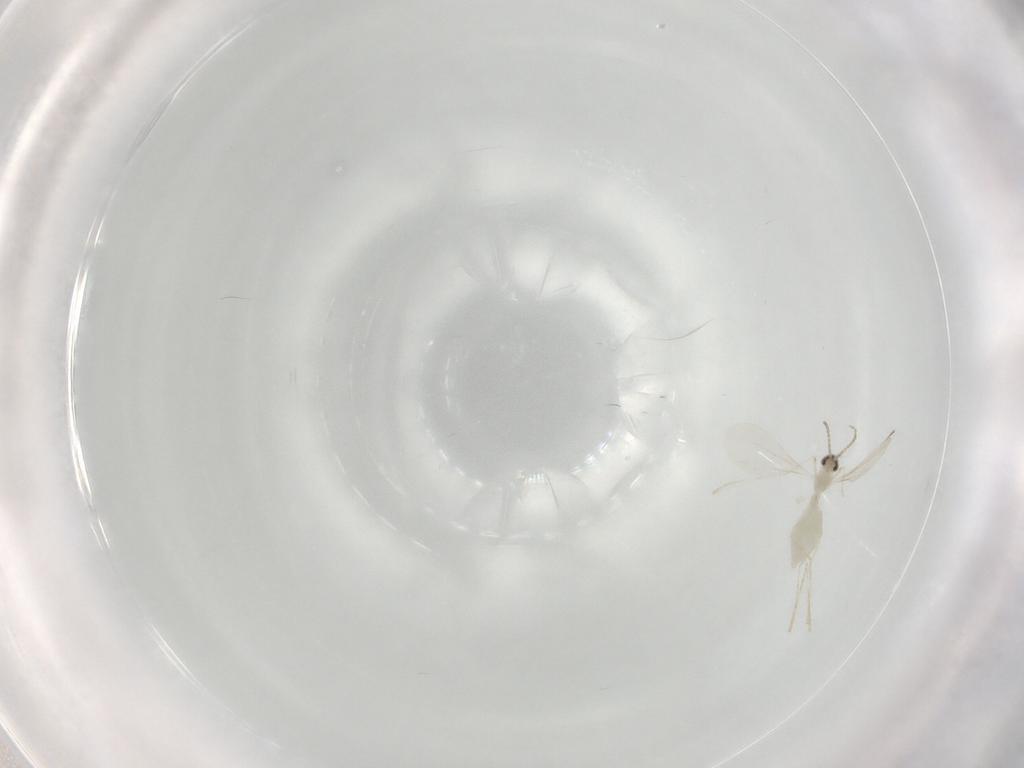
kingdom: Animalia
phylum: Arthropoda
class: Insecta
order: Diptera
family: Cecidomyiidae
